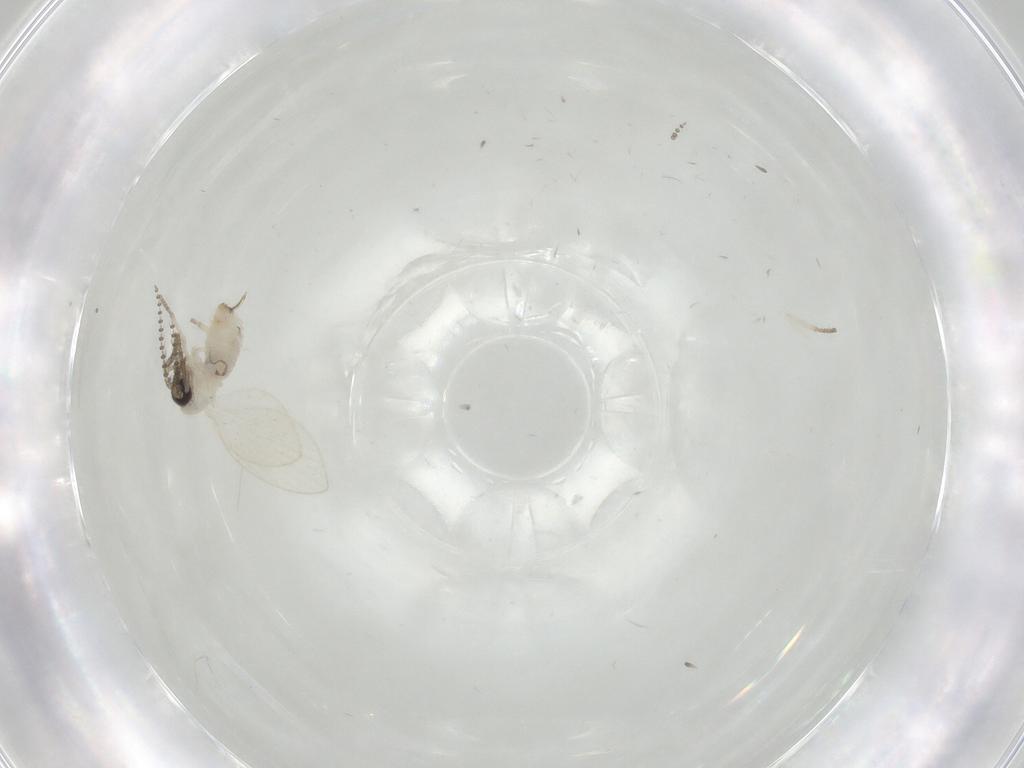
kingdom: Animalia
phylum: Arthropoda
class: Insecta
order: Diptera
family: Psychodidae
